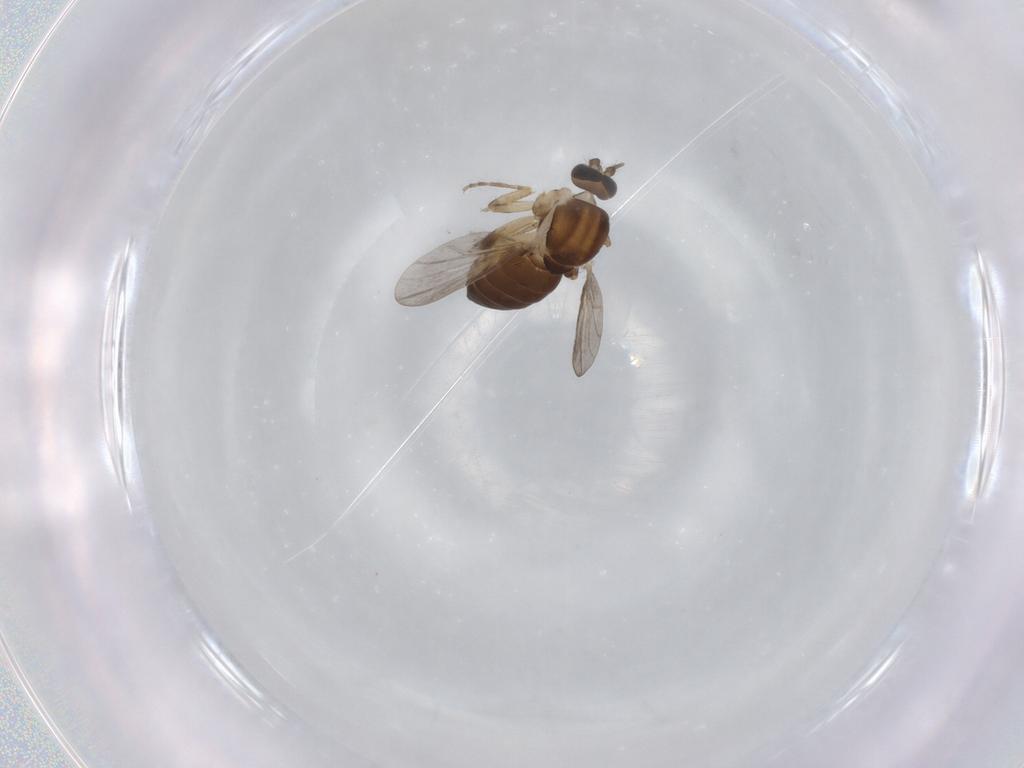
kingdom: Animalia
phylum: Arthropoda
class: Insecta
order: Diptera
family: Ceratopogonidae
